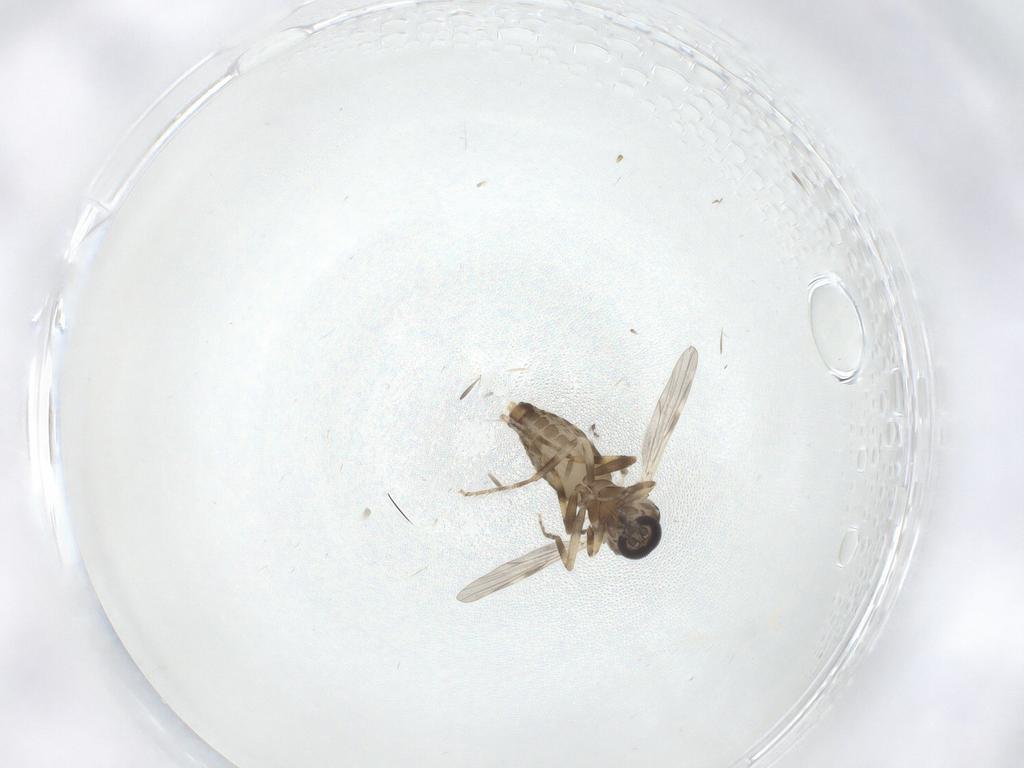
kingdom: Animalia
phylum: Arthropoda
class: Insecta
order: Diptera
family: Ceratopogonidae
